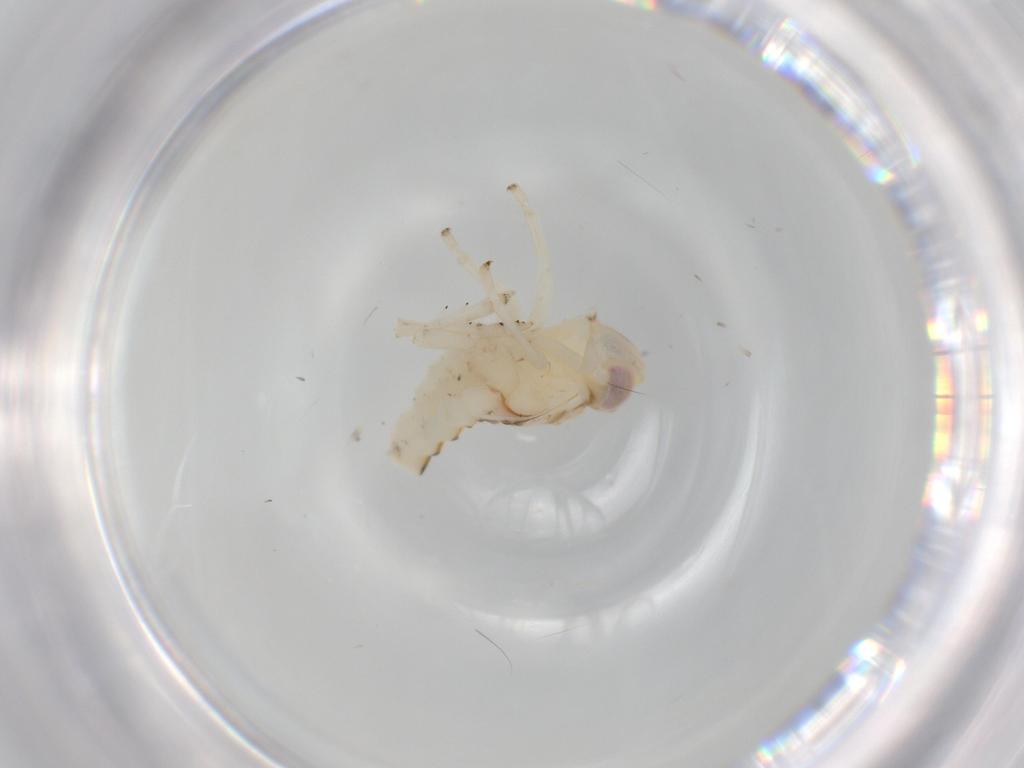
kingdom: Animalia
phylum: Arthropoda
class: Insecta
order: Hemiptera
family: Nogodinidae
